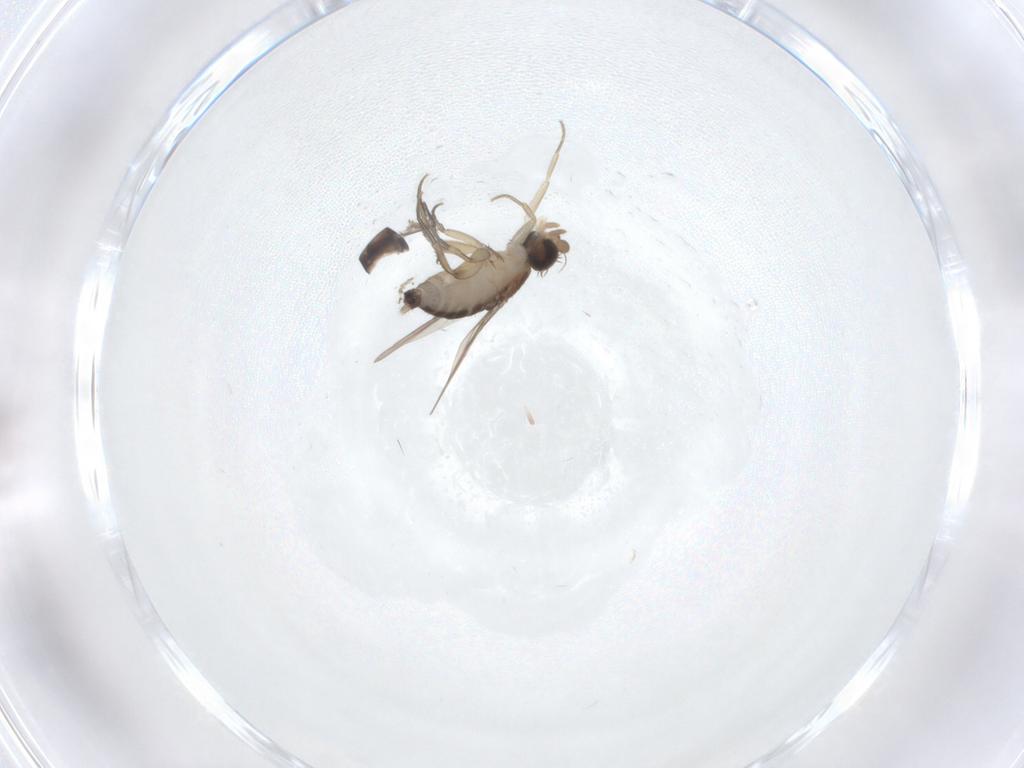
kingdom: Animalia
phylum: Arthropoda
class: Insecta
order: Diptera
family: Phoridae
